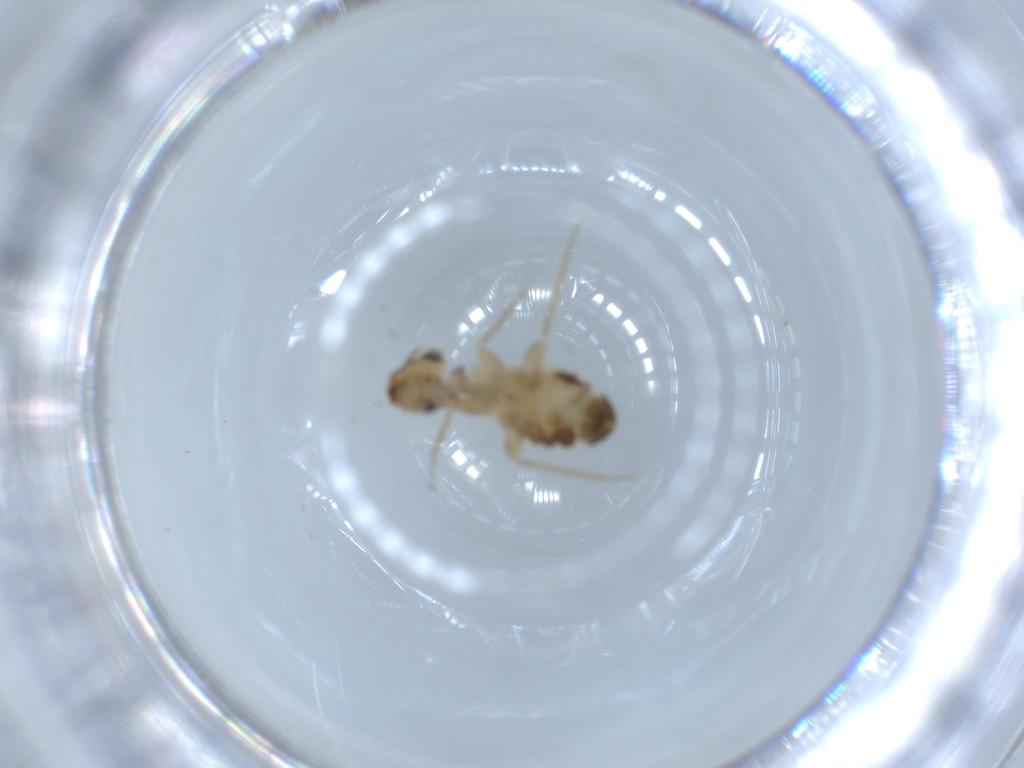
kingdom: Animalia
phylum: Arthropoda
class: Insecta
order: Psocodea
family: Lepidopsocidae
